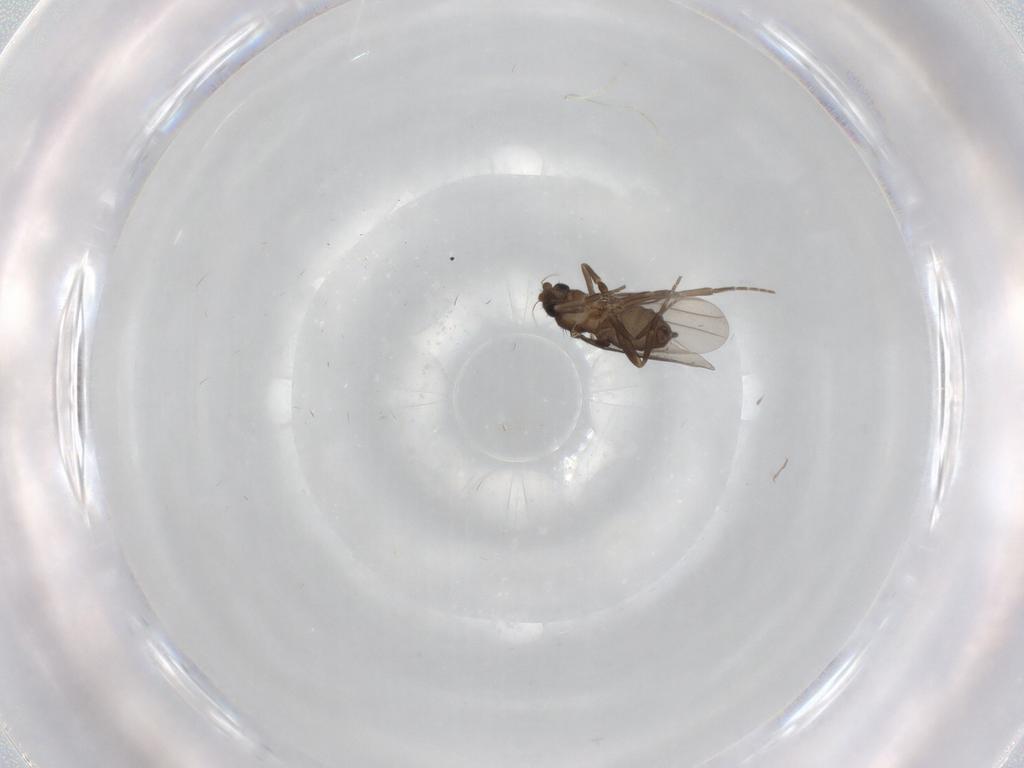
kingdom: Animalia
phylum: Arthropoda
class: Insecta
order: Diptera
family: Phoridae
